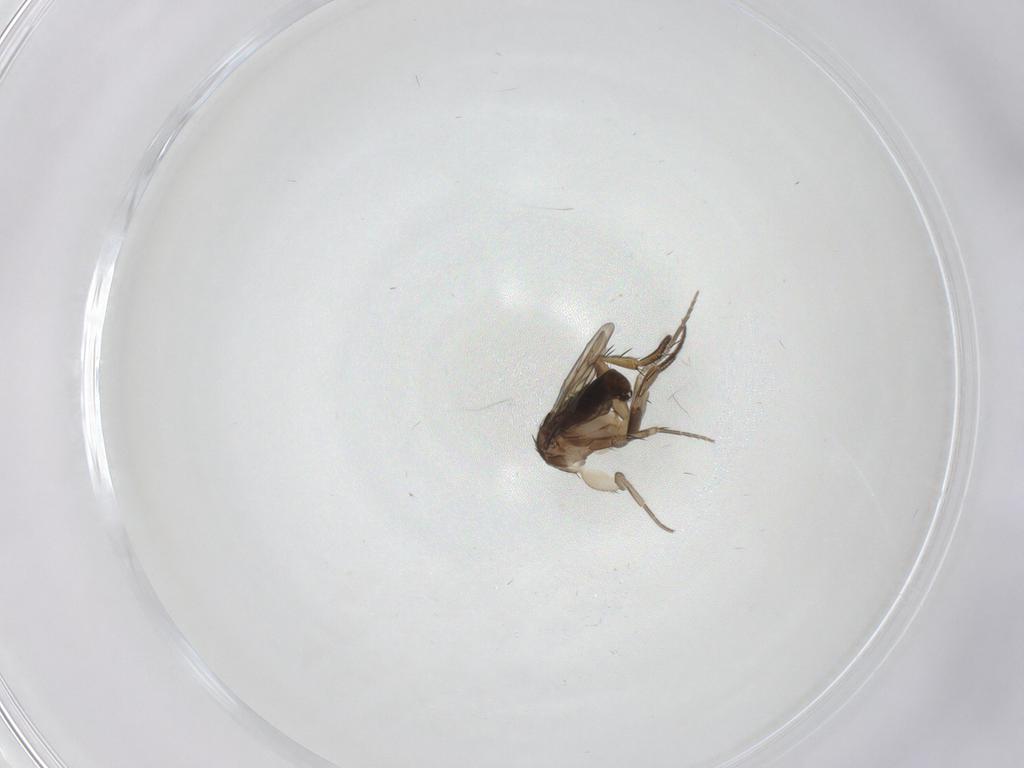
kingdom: Animalia
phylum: Arthropoda
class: Insecta
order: Diptera
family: Phoridae
